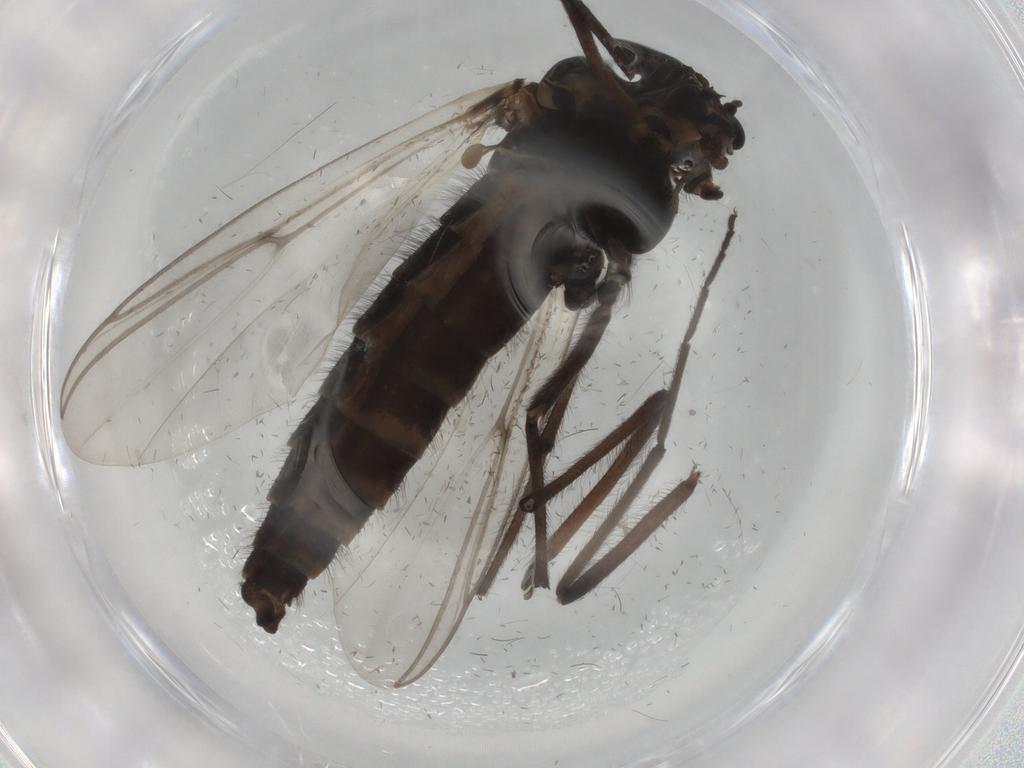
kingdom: Animalia
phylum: Arthropoda
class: Insecta
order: Diptera
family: Chironomidae
